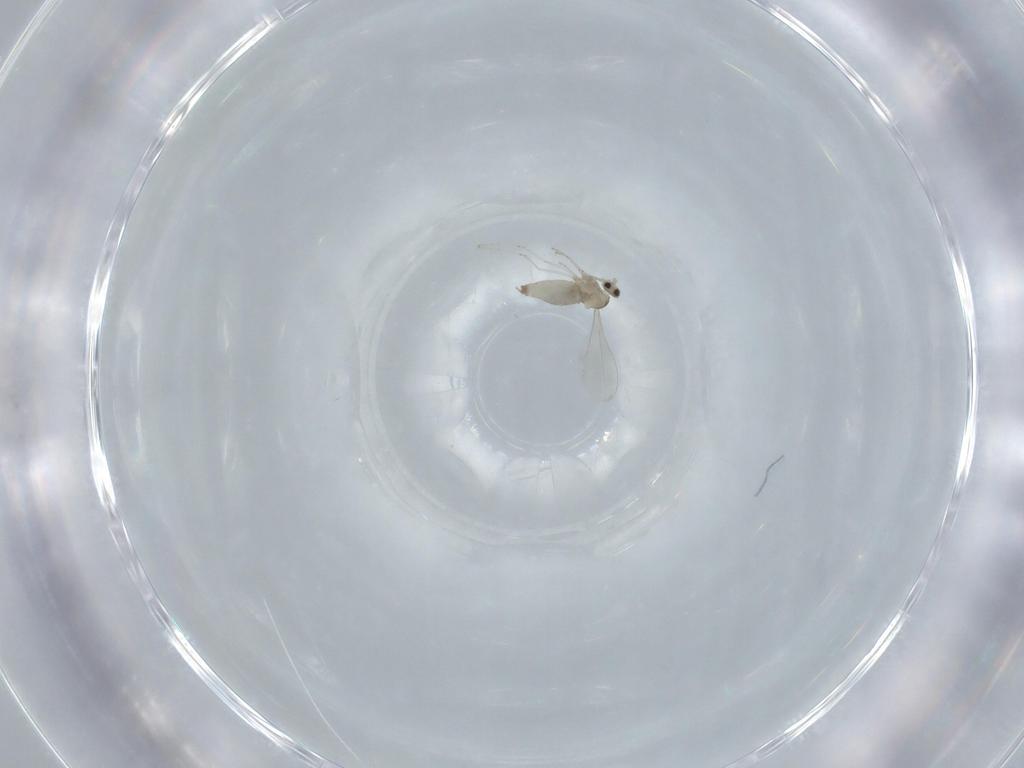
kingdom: Animalia
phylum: Arthropoda
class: Insecta
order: Diptera
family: Cecidomyiidae
